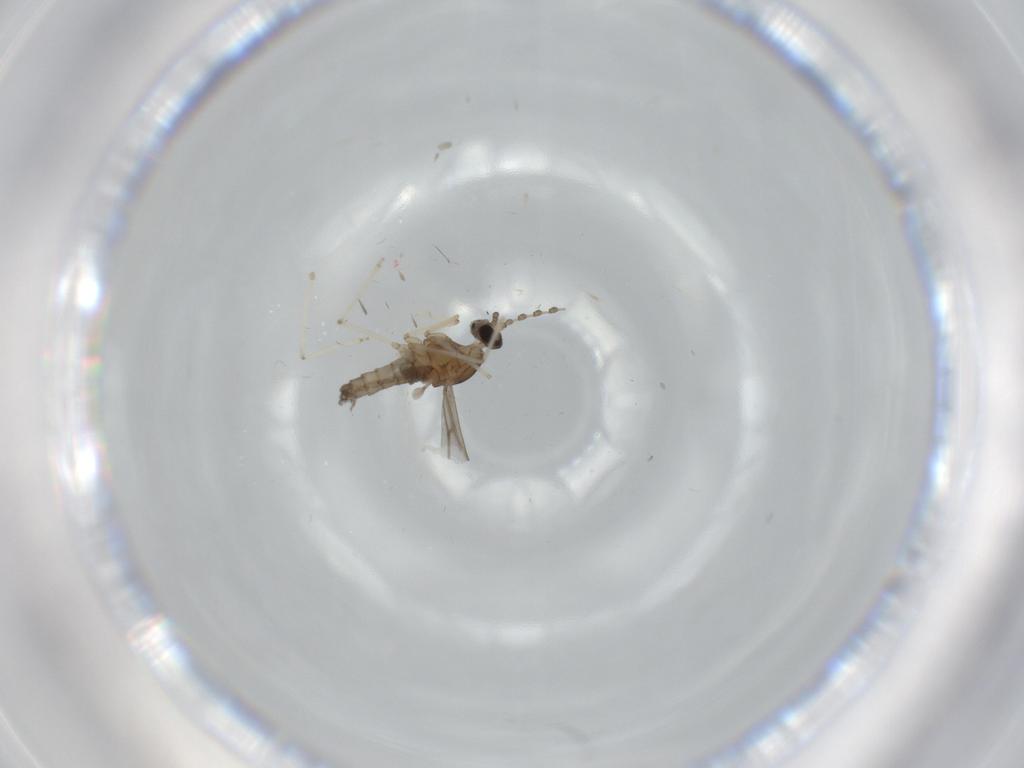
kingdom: Animalia
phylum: Arthropoda
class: Insecta
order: Diptera
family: Cecidomyiidae
